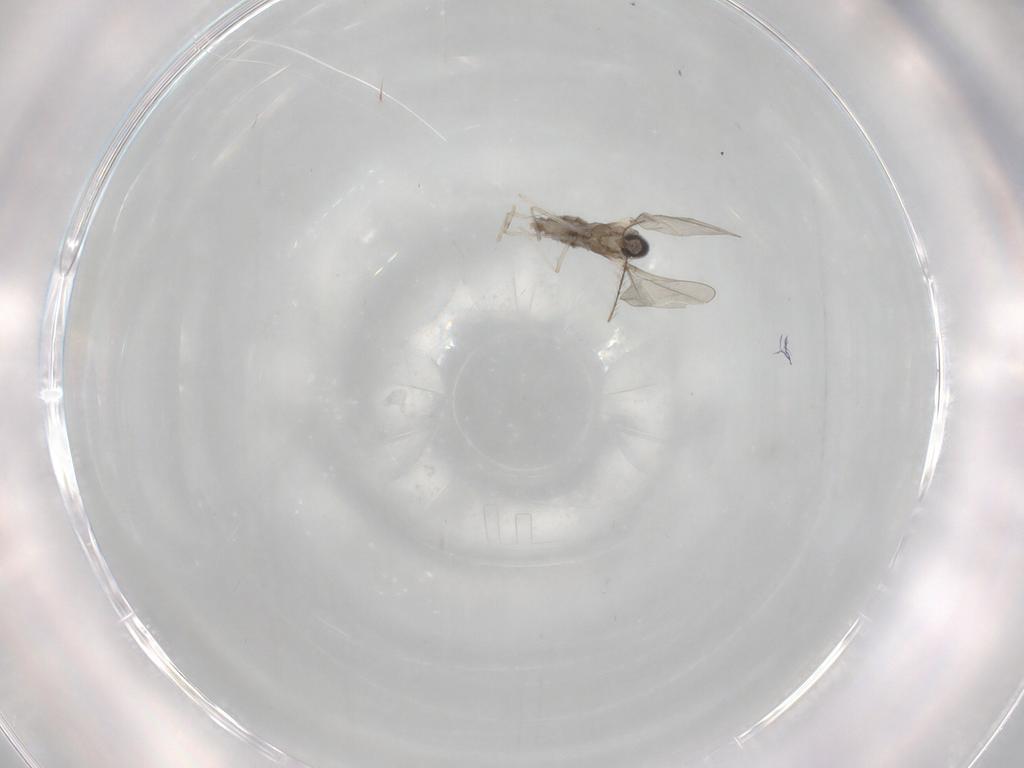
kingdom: Animalia
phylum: Arthropoda
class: Insecta
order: Diptera
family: Cecidomyiidae
